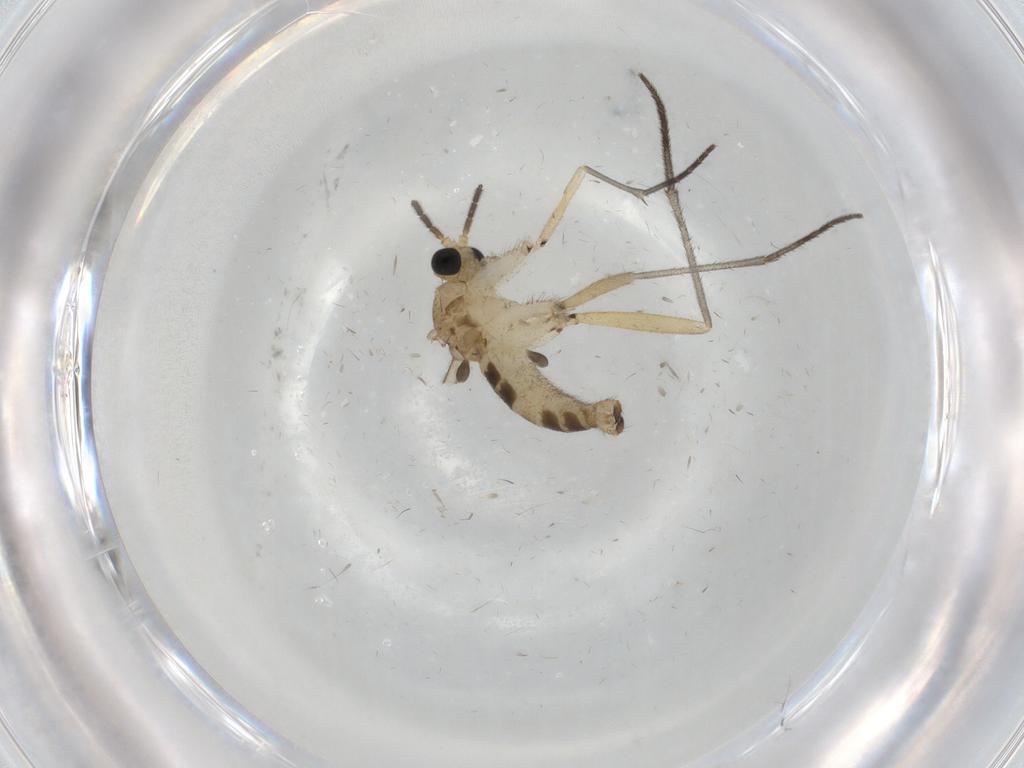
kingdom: Animalia
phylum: Arthropoda
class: Insecta
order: Diptera
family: Sciaridae
